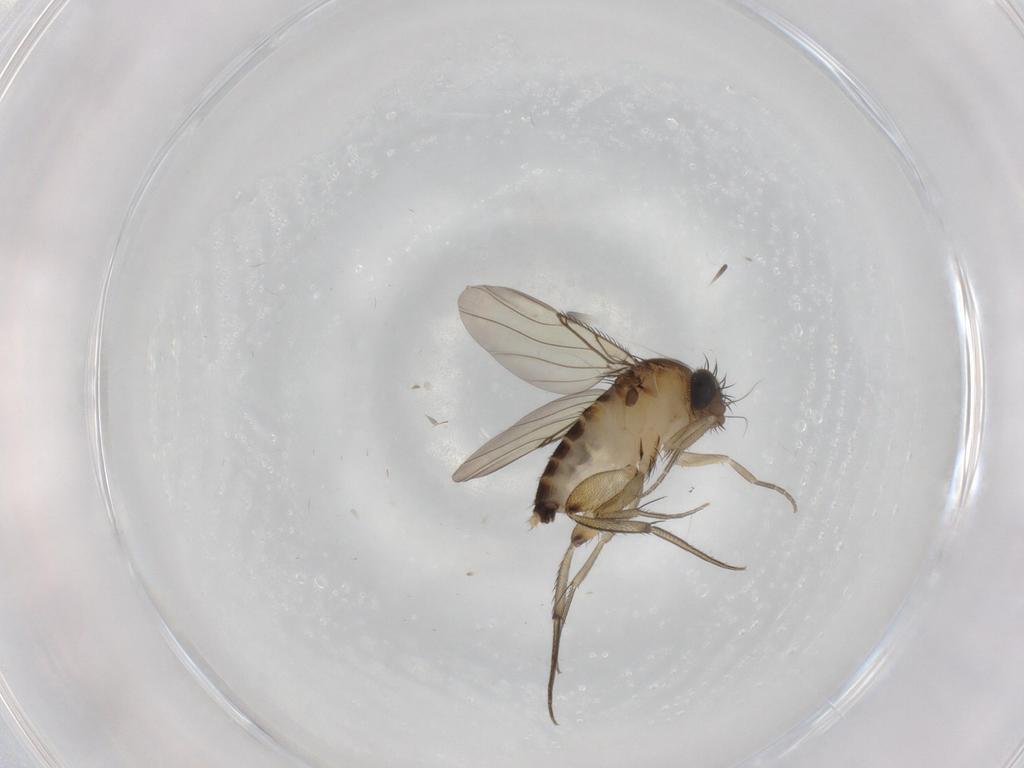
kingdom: Animalia
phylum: Arthropoda
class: Insecta
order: Diptera
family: Phoridae
